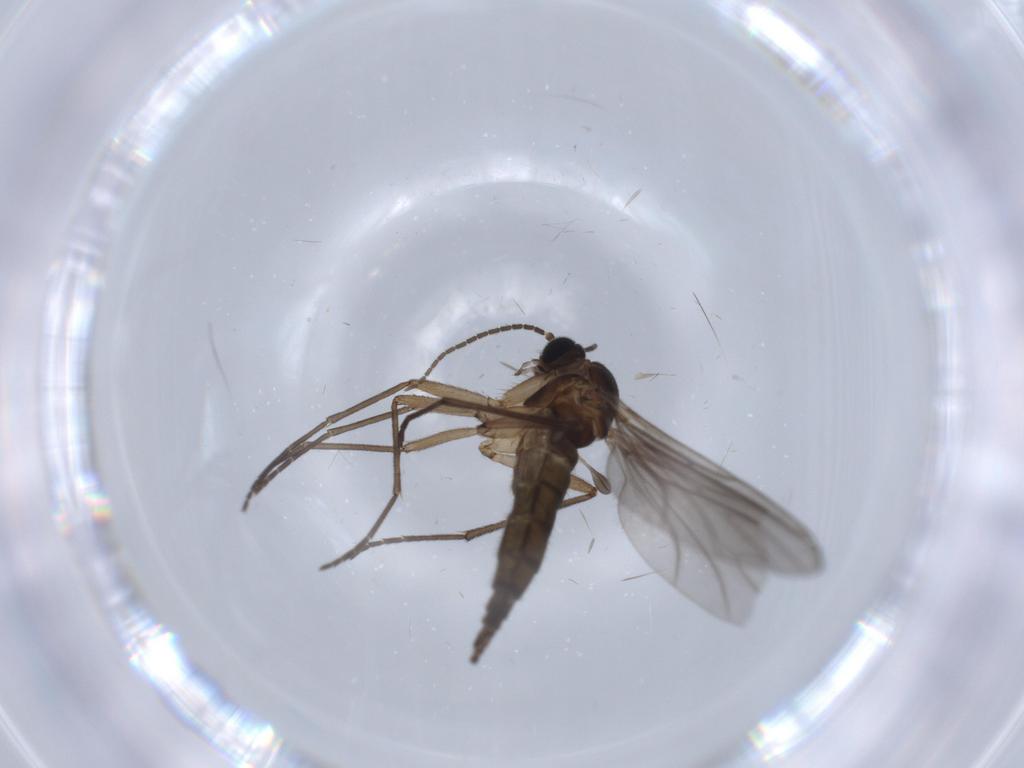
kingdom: Animalia
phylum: Arthropoda
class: Insecta
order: Diptera
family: Sciaridae
